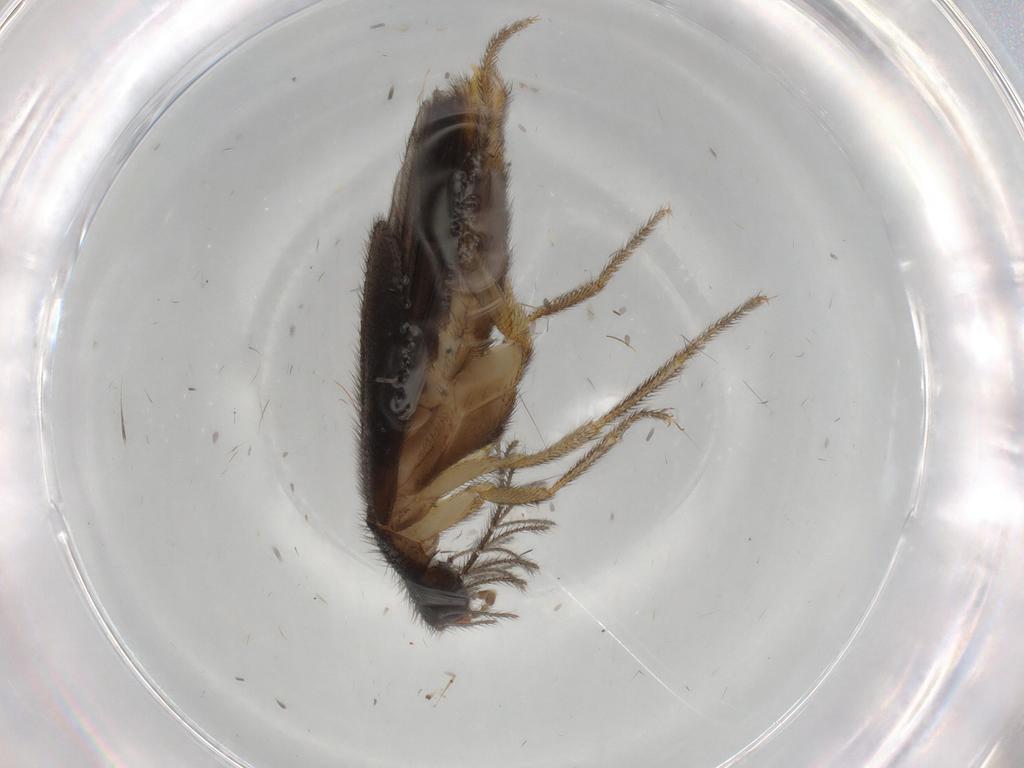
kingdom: Animalia
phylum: Arthropoda
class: Insecta
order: Coleoptera
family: Phengodidae
